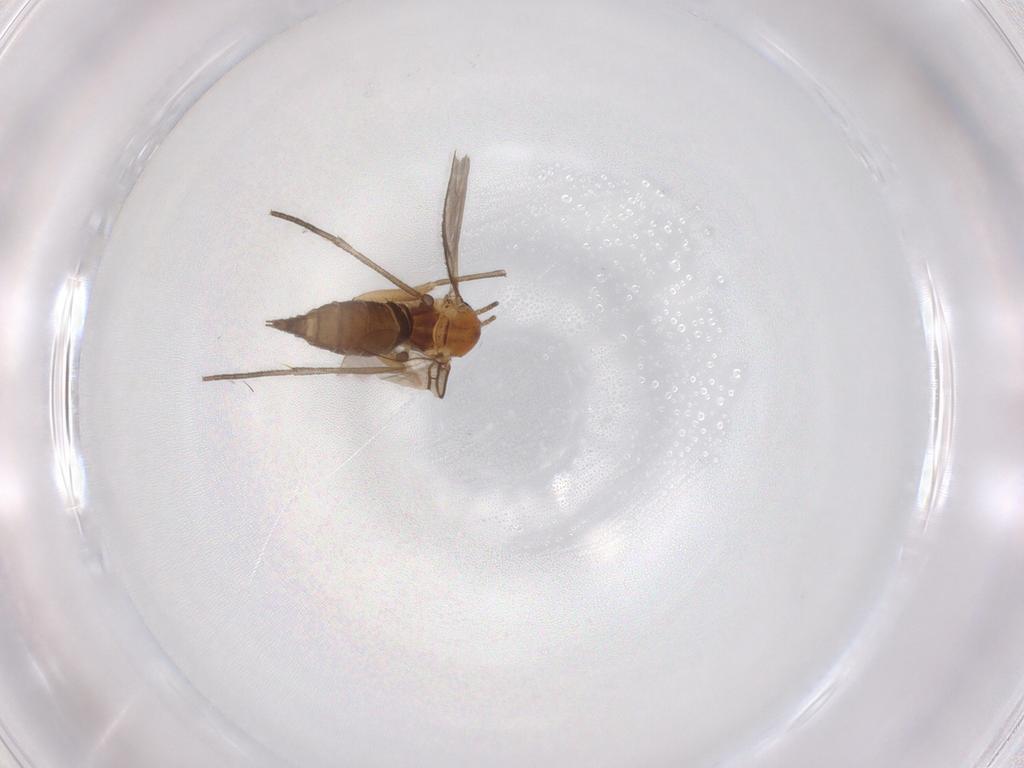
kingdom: Animalia
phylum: Arthropoda
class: Insecta
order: Diptera
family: Sciaridae
